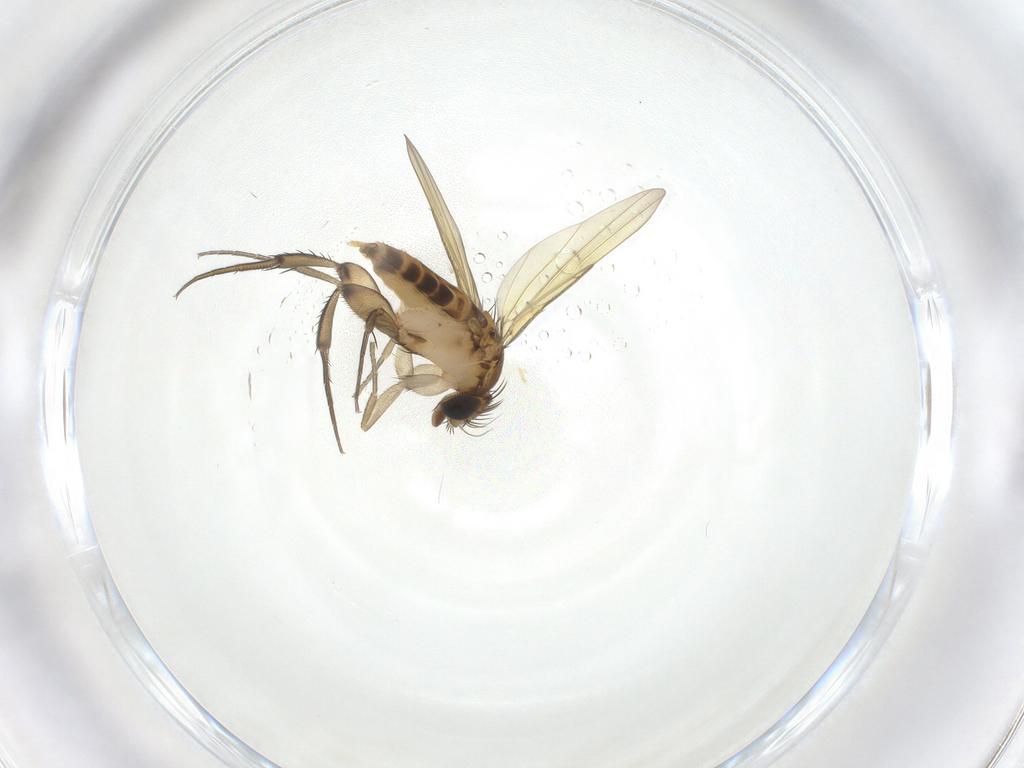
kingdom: Animalia
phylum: Arthropoda
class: Insecta
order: Diptera
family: Phoridae
